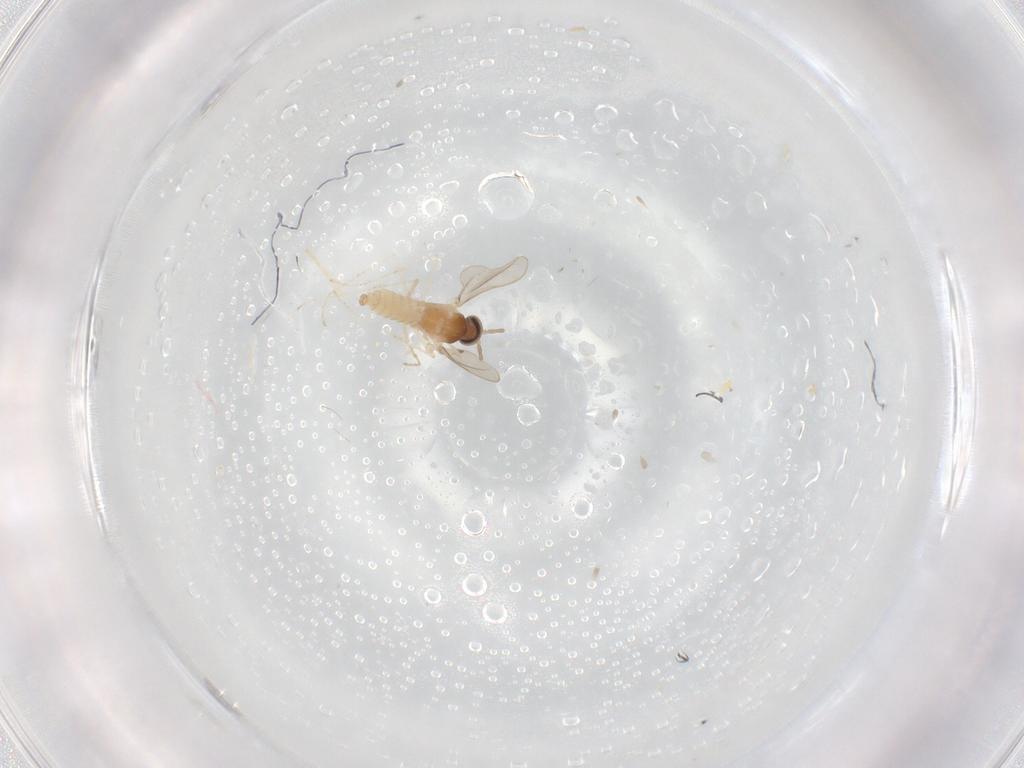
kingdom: Animalia
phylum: Arthropoda
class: Insecta
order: Diptera
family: Cecidomyiidae
